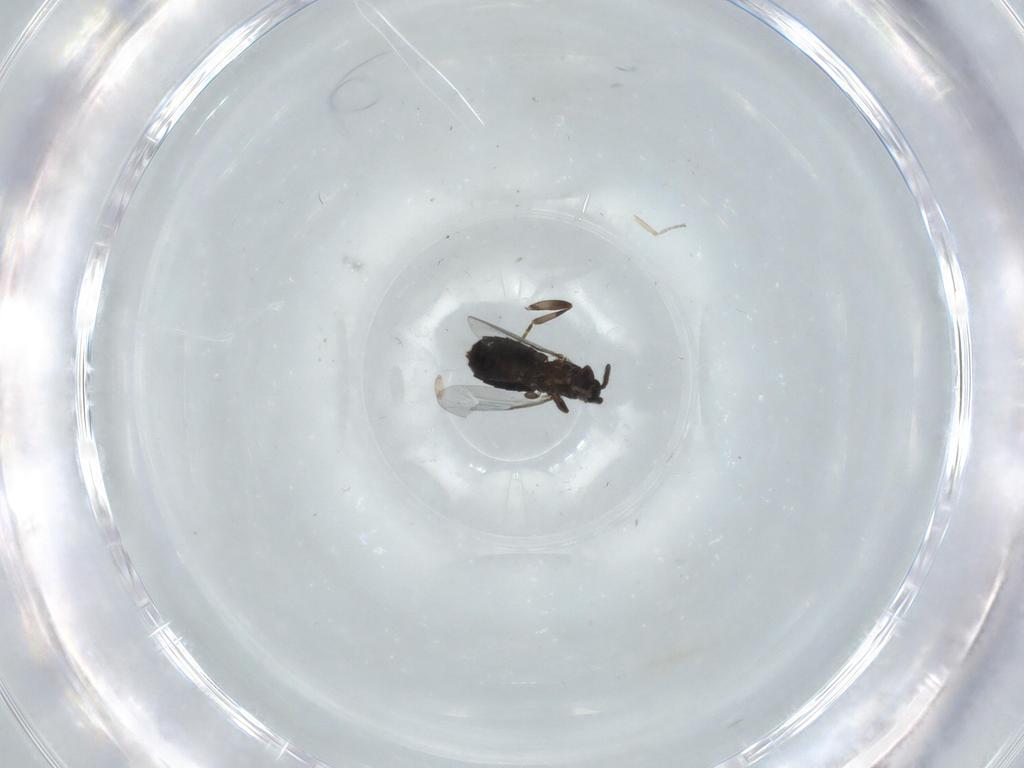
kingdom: Animalia
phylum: Arthropoda
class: Insecta
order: Diptera
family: Calliphoridae
